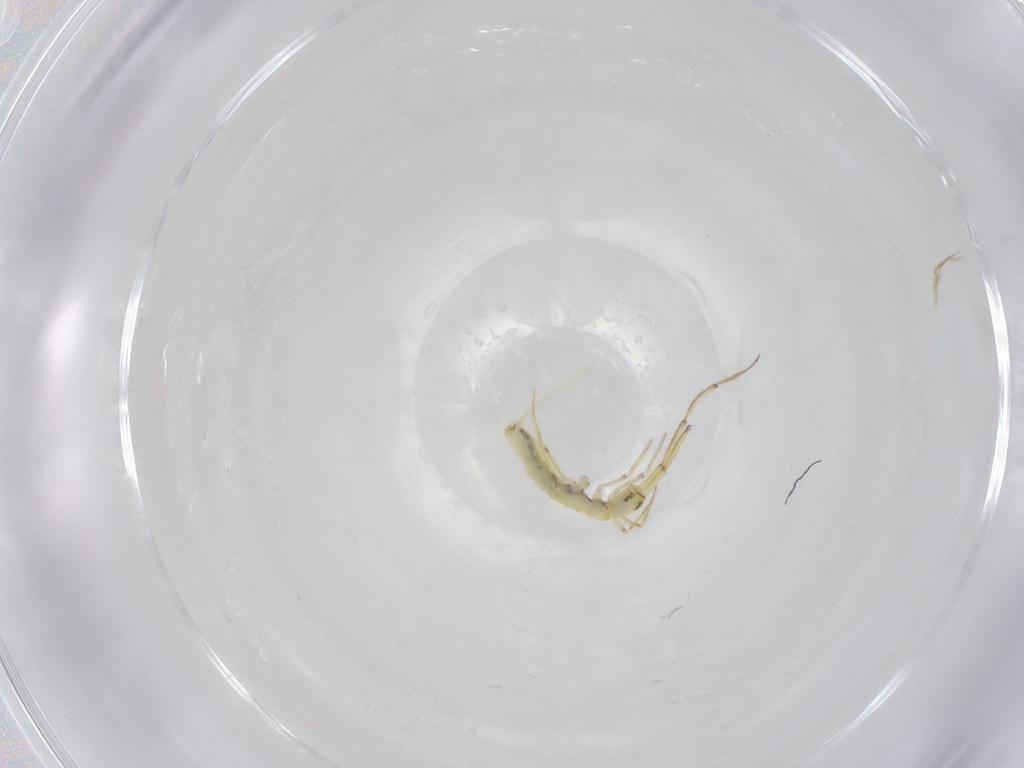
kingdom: Animalia
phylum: Arthropoda
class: Collembola
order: Entomobryomorpha
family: Entomobryidae
